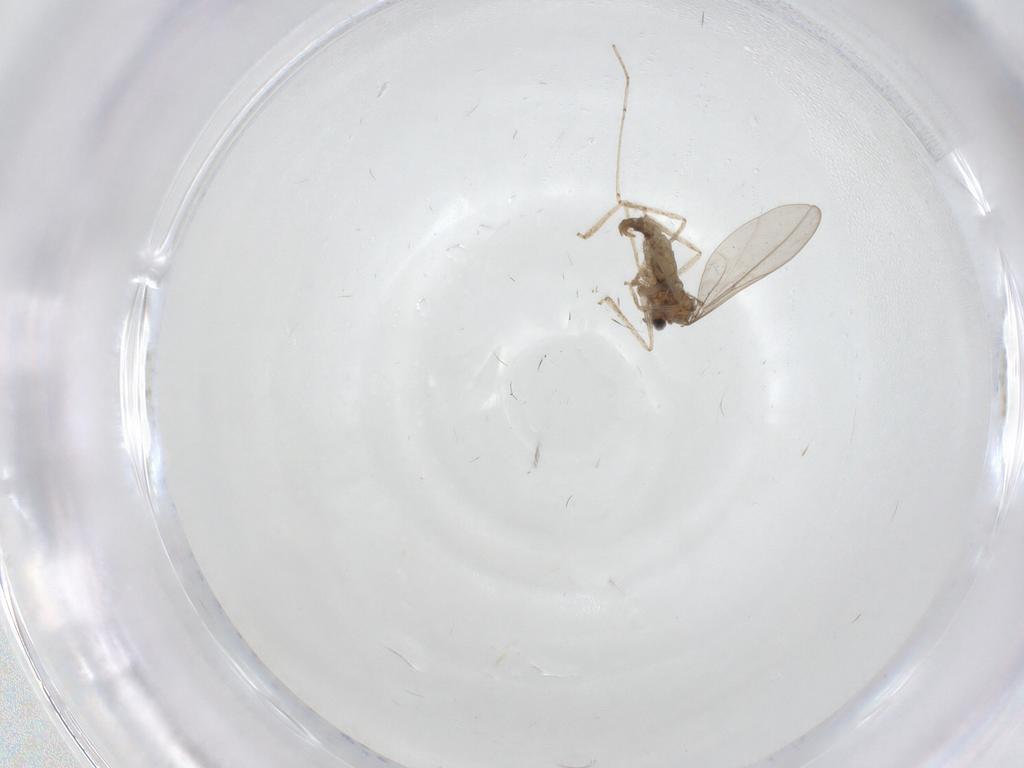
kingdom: Animalia
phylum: Arthropoda
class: Insecta
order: Diptera
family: Cecidomyiidae
